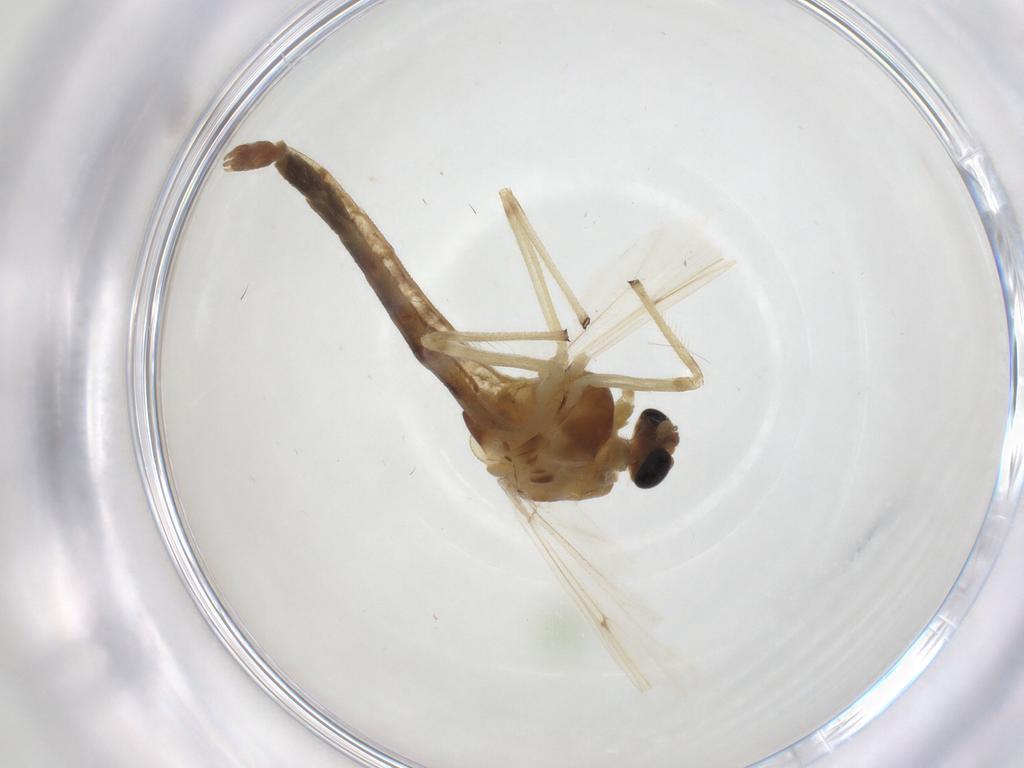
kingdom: Animalia
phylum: Arthropoda
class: Insecta
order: Diptera
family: Chironomidae
